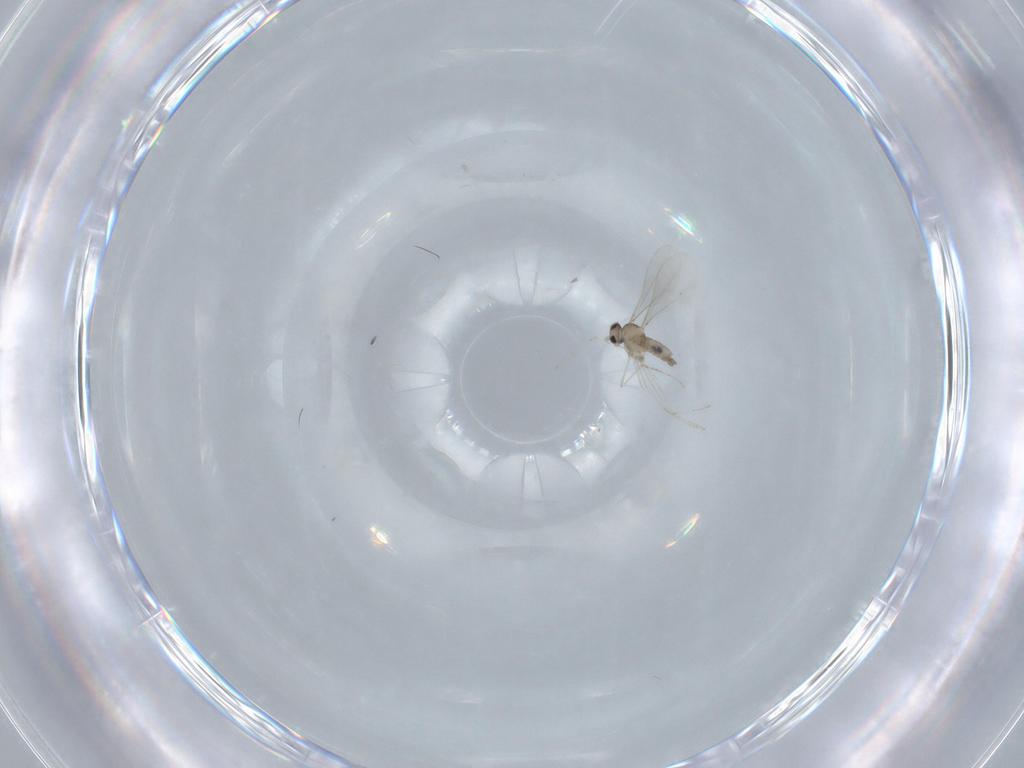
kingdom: Animalia
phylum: Arthropoda
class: Insecta
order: Diptera
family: Cecidomyiidae
